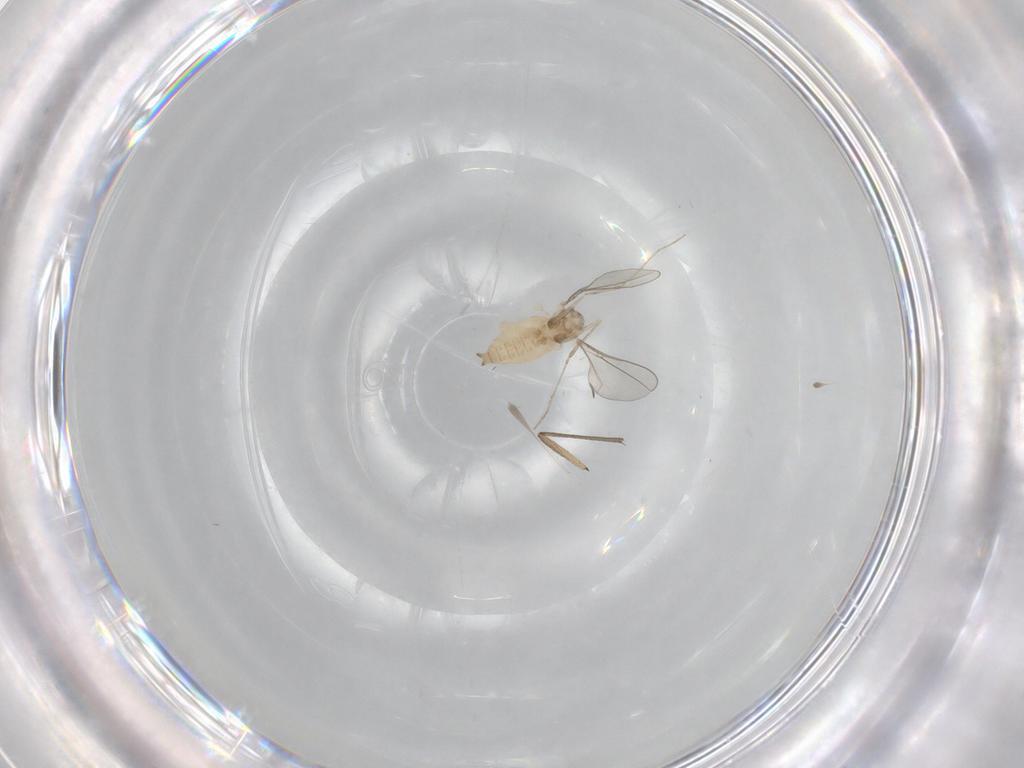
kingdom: Animalia
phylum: Arthropoda
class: Insecta
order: Diptera
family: Cecidomyiidae
